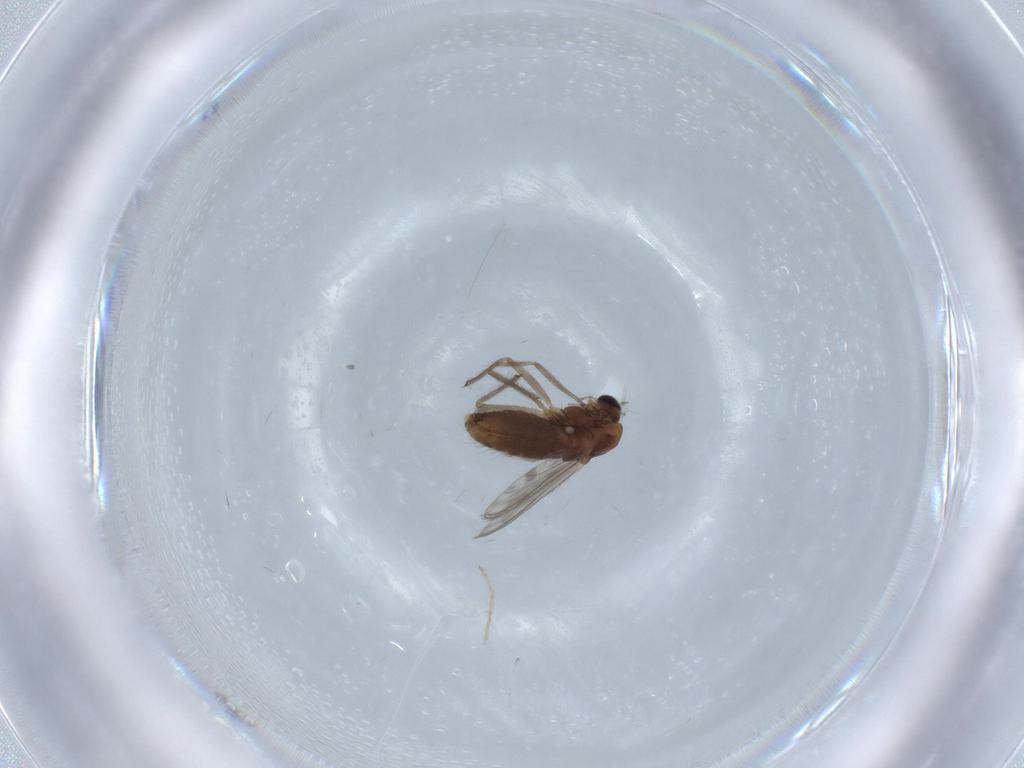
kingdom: Animalia
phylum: Arthropoda
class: Insecta
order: Diptera
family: Chironomidae
